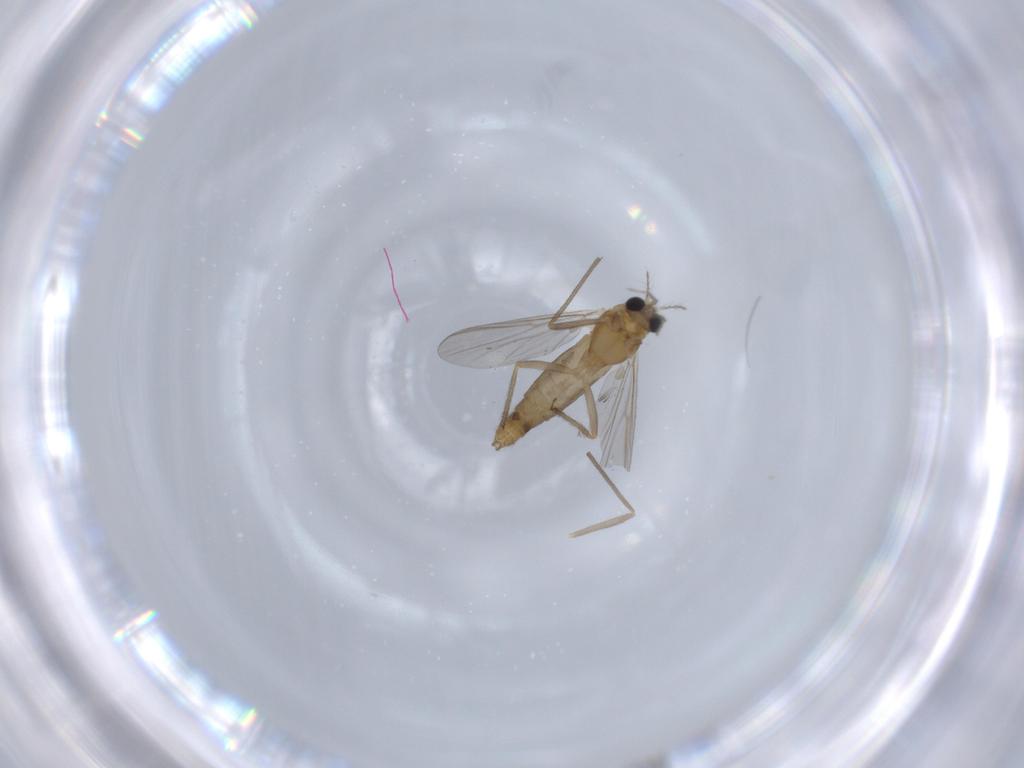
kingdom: Animalia
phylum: Arthropoda
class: Insecta
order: Diptera
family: Chironomidae
